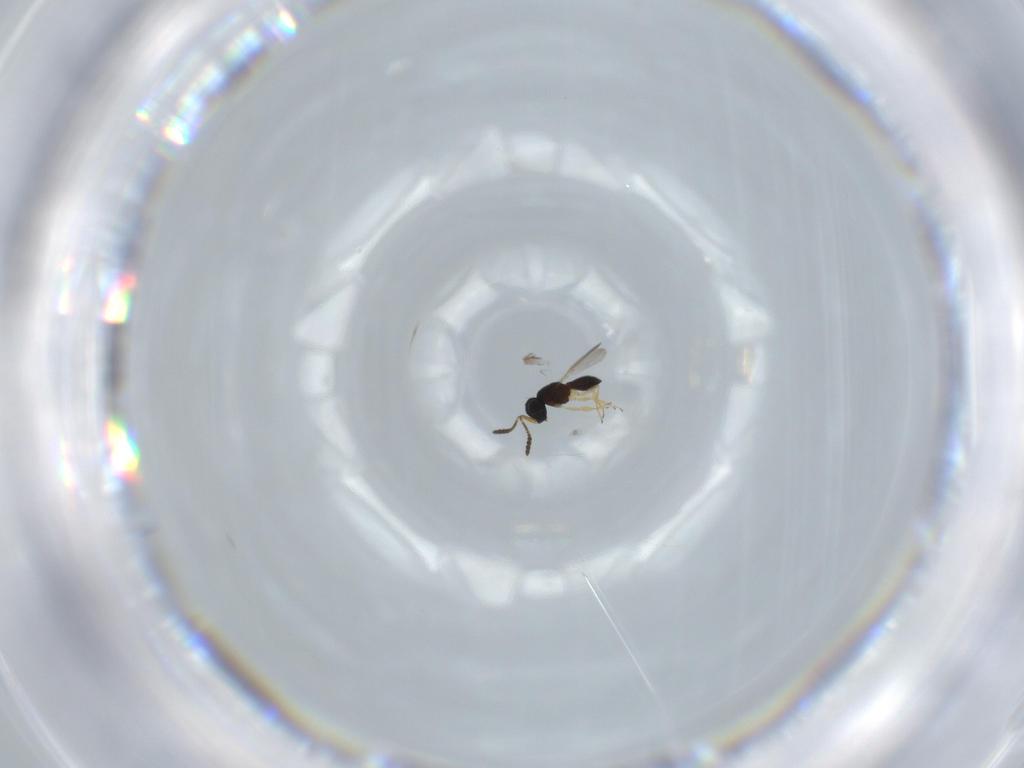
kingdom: Animalia
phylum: Arthropoda
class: Insecta
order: Hymenoptera
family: Scelionidae
